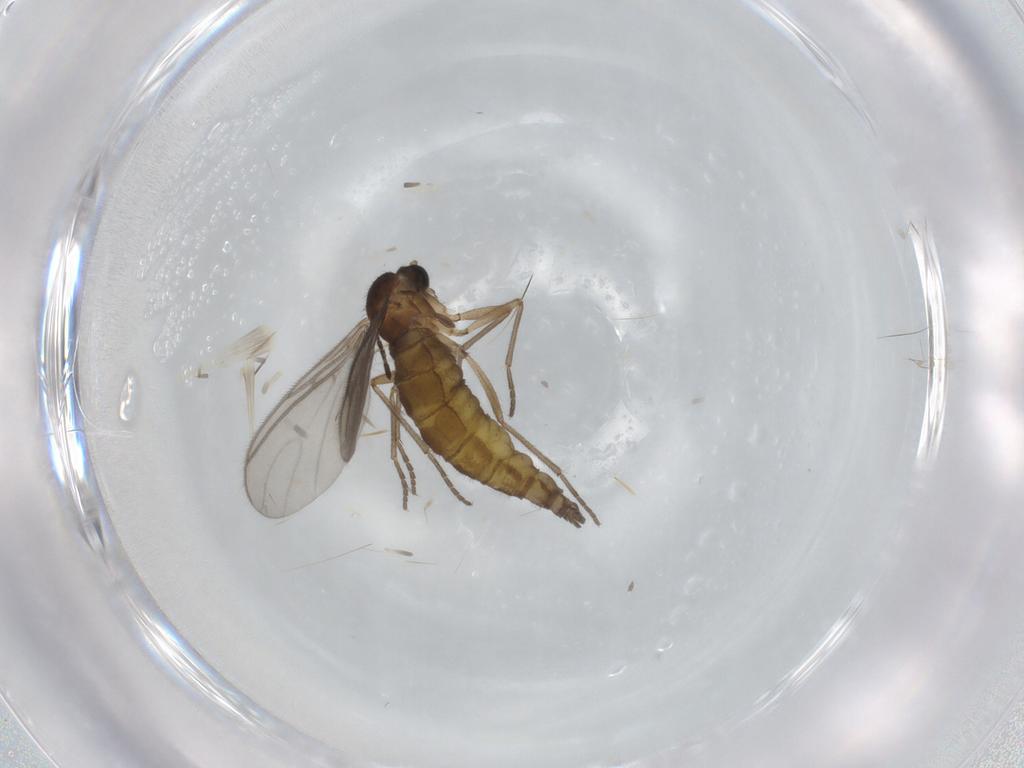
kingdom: Animalia
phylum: Arthropoda
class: Insecta
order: Diptera
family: Sciaridae
